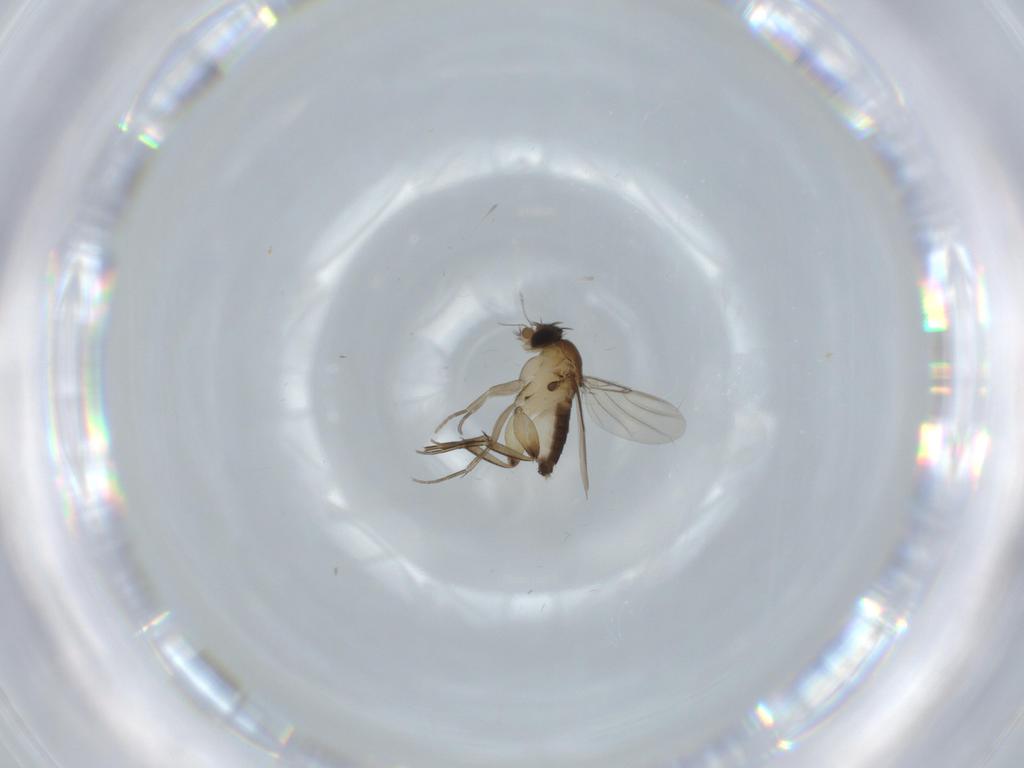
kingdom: Animalia
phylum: Arthropoda
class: Insecta
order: Diptera
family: Phoridae
